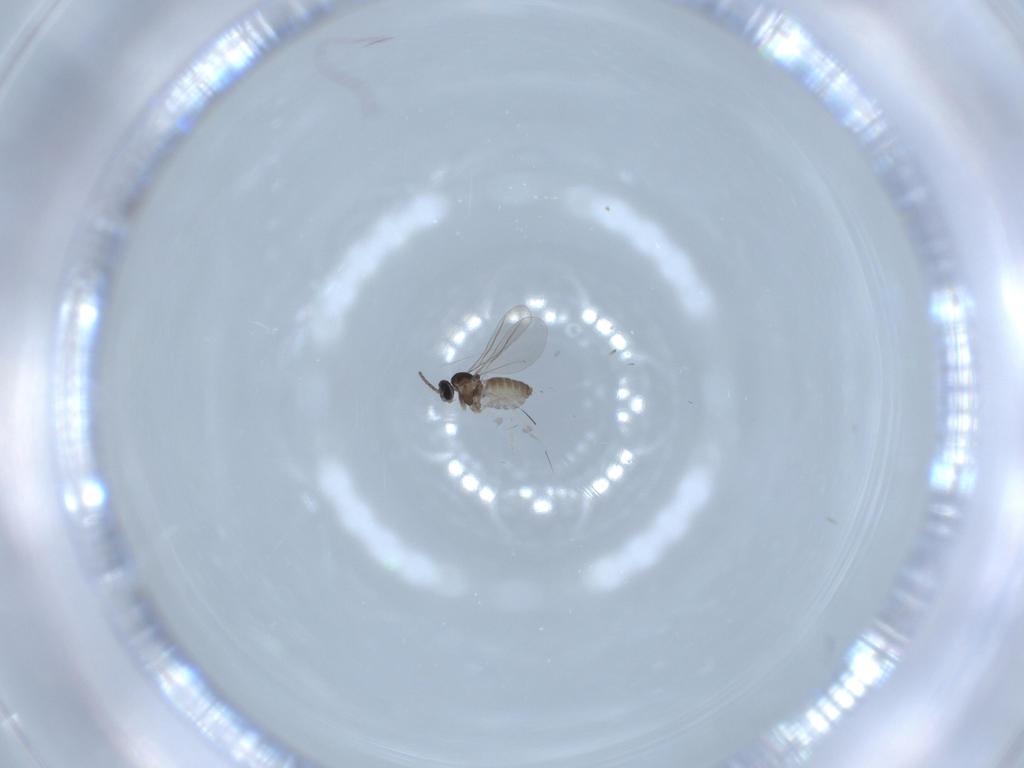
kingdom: Animalia
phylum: Arthropoda
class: Insecta
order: Diptera
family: Cecidomyiidae
